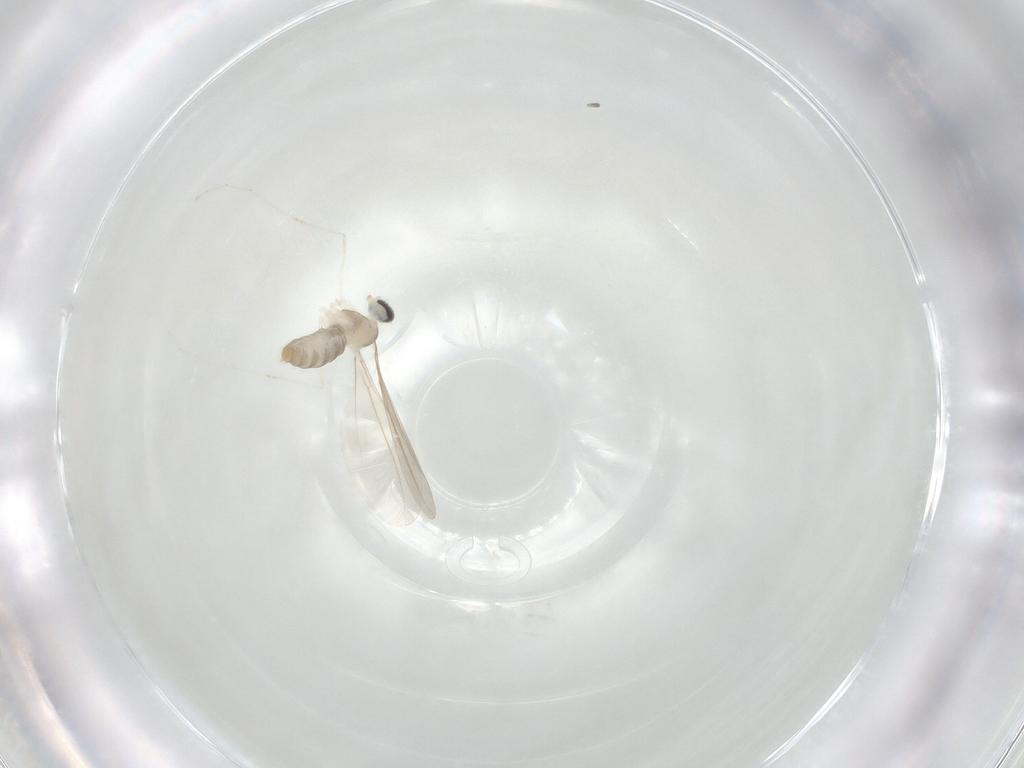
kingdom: Animalia
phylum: Arthropoda
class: Insecta
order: Diptera
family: Cecidomyiidae
